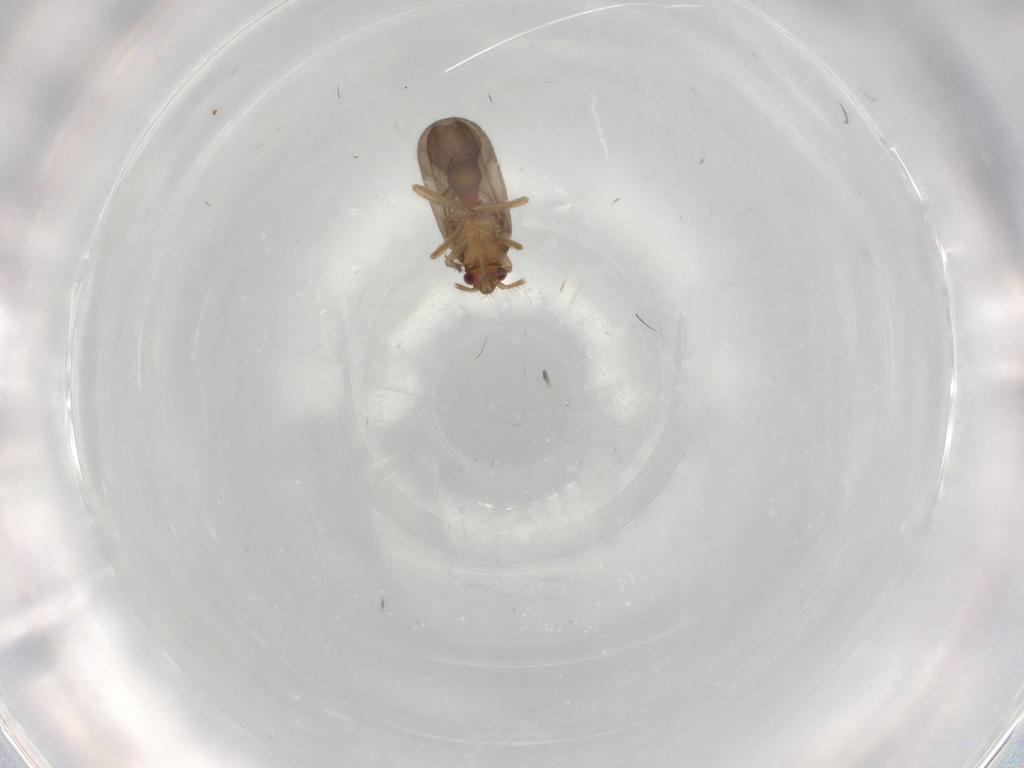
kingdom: Animalia
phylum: Arthropoda
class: Insecta
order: Hemiptera
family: Ceratocombidae
